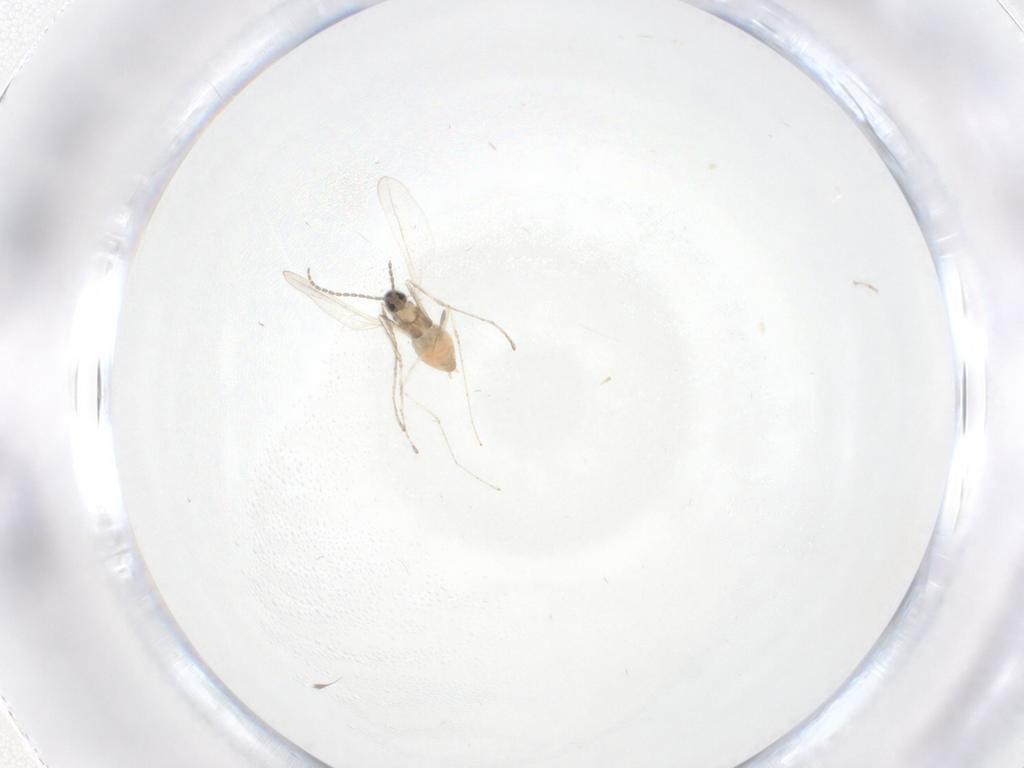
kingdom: Animalia
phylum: Arthropoda
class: Insecta
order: Diptera
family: Cecidomyiidae
